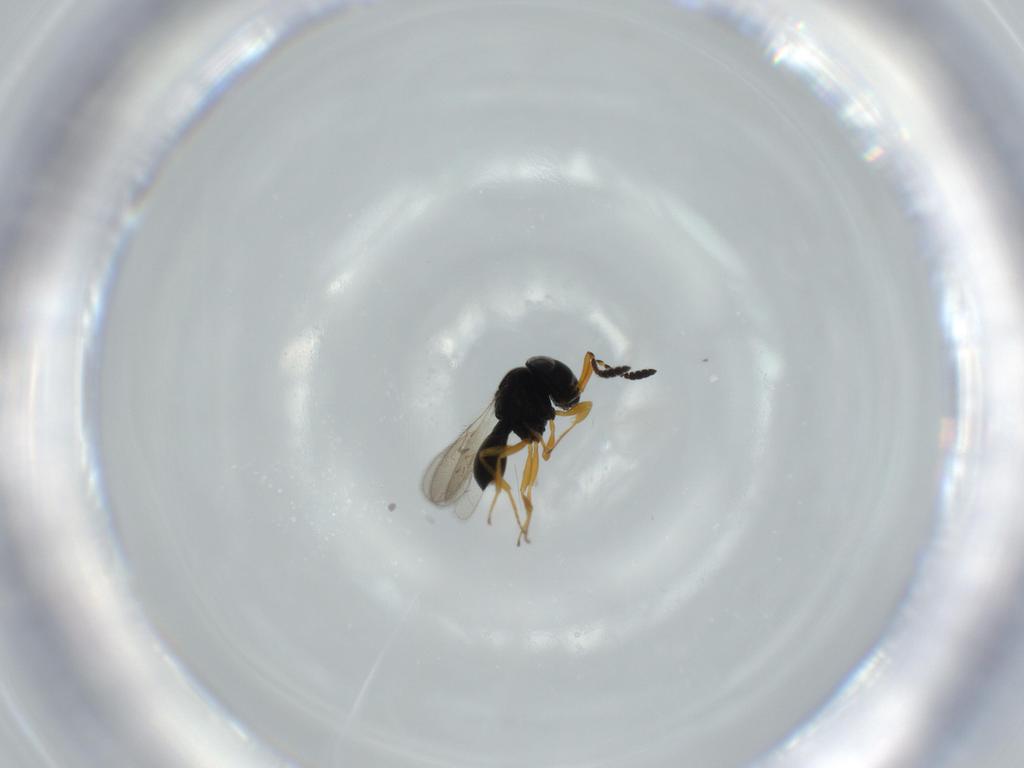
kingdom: Animalia
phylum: Arthropoda
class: Insecta
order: Hymenoptera
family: Scelionidae
